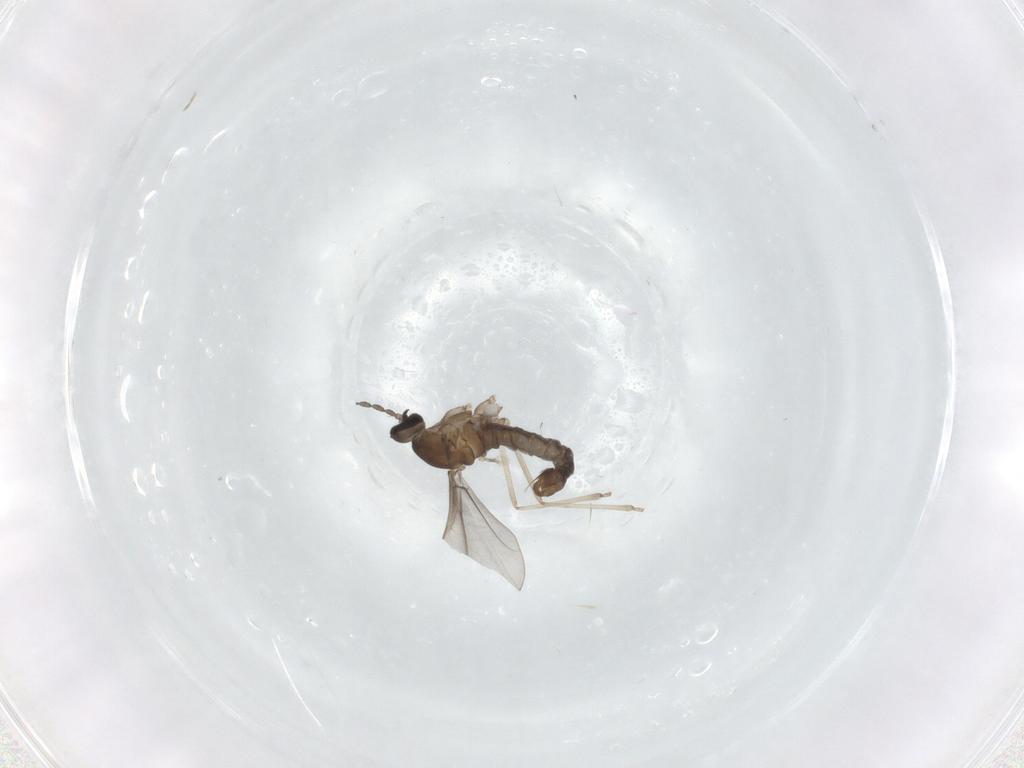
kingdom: Animalia
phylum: Arthropoda
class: Insecta
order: Diptera
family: Cecidomyiidae
